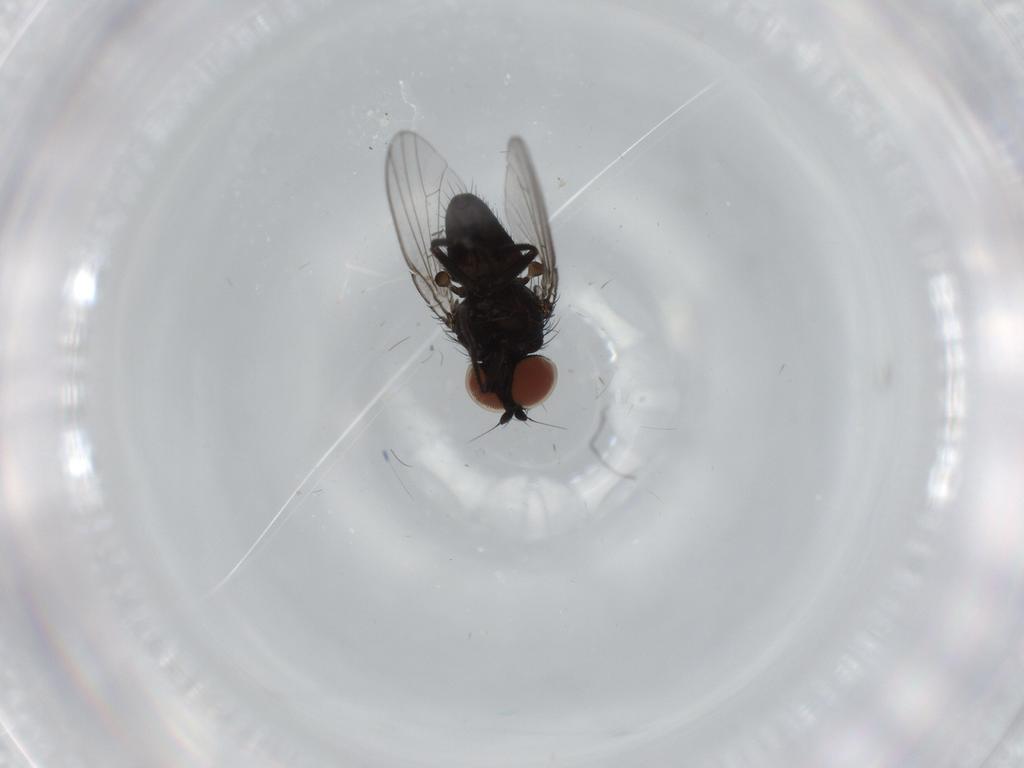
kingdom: Animalia
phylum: Arthropoda
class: Insecta
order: Diptera
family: Milichiidae
